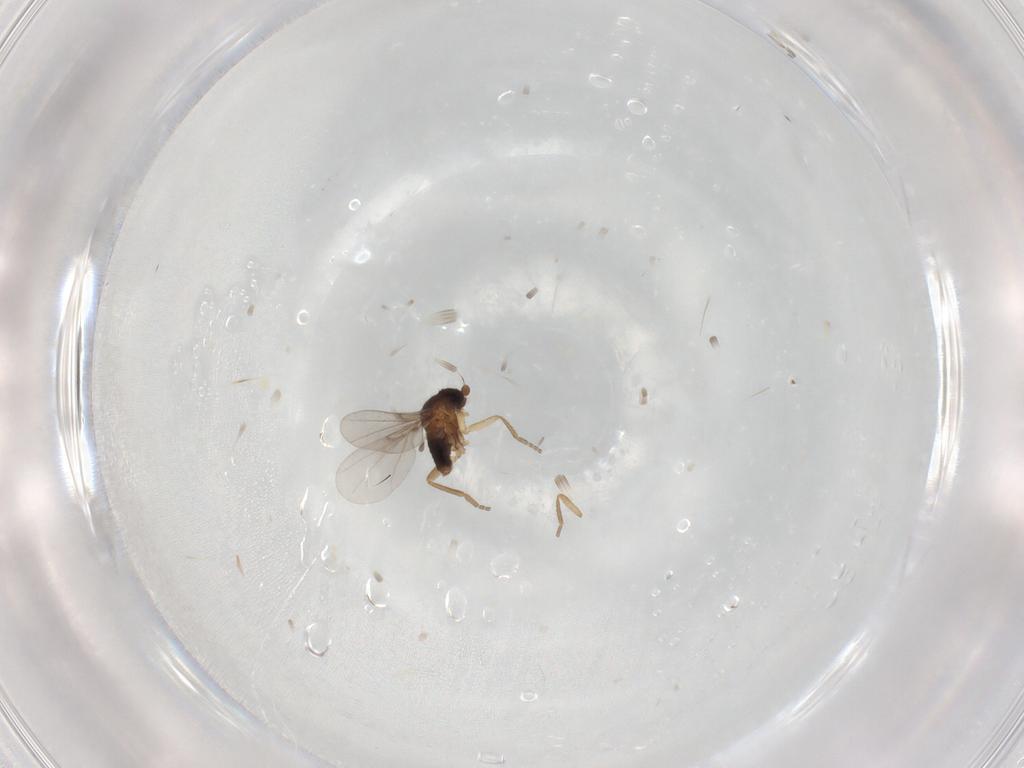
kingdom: Animalia
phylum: Arthropoda
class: Insecta
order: Diptera
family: Phoridae
